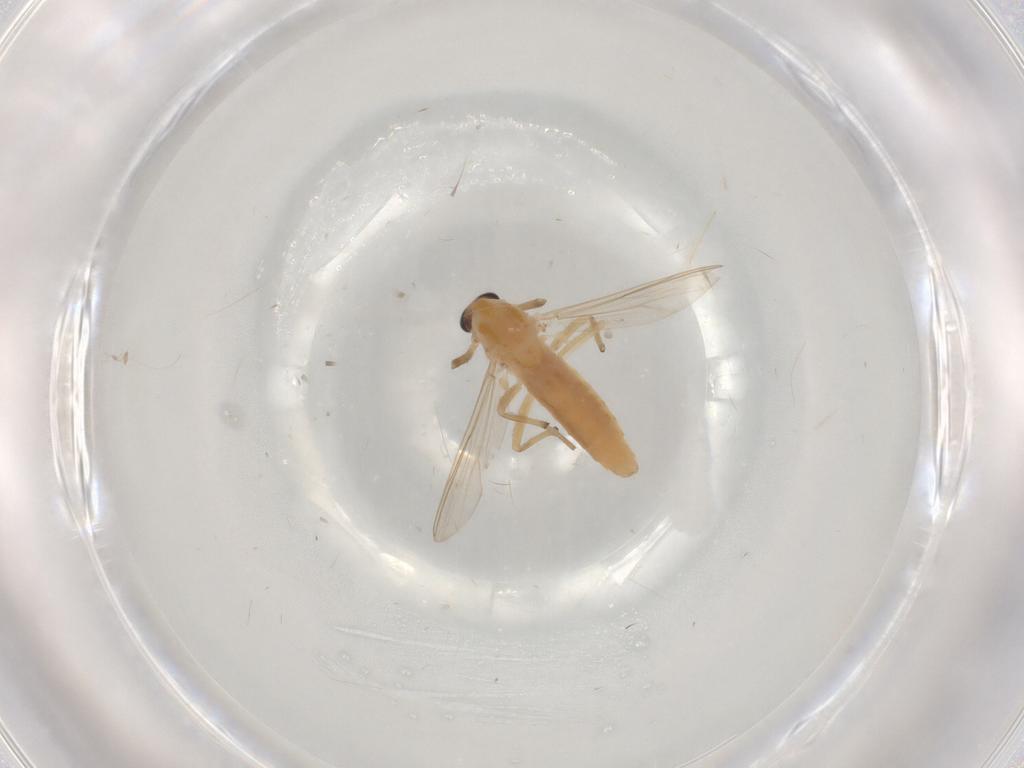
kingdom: Animalia
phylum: Arthropoda
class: Insecta
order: Diptera
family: Chironomidae
